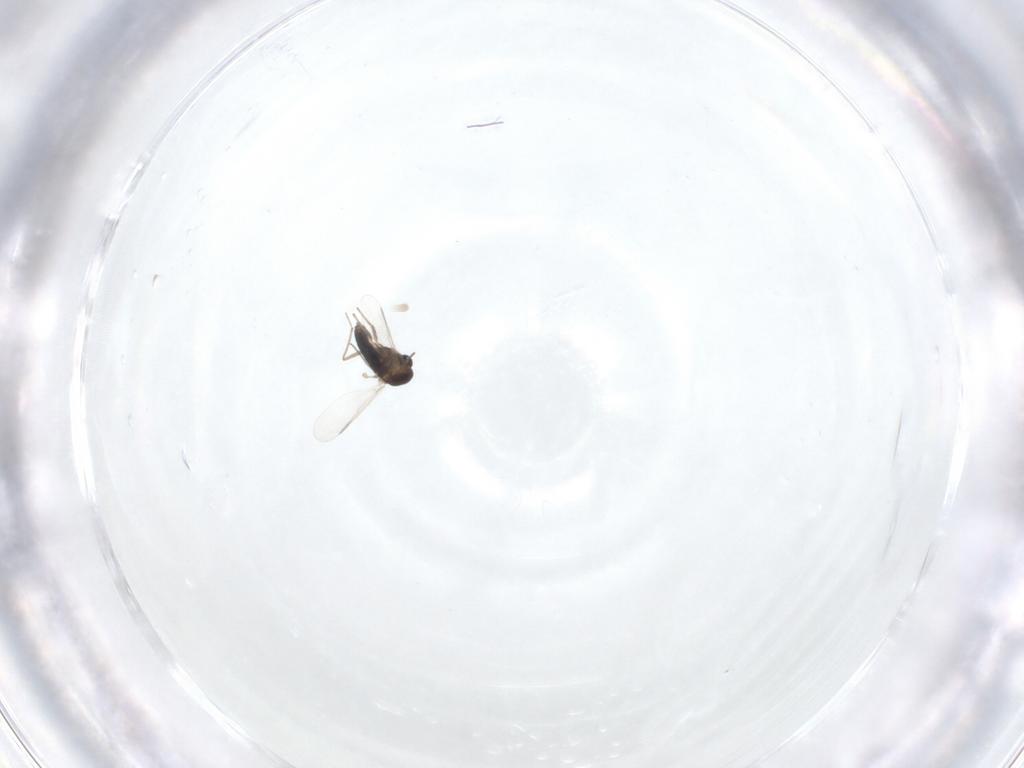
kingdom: Animalia
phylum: Arthropoda
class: Insecta
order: Diptera
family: Chironomidae
